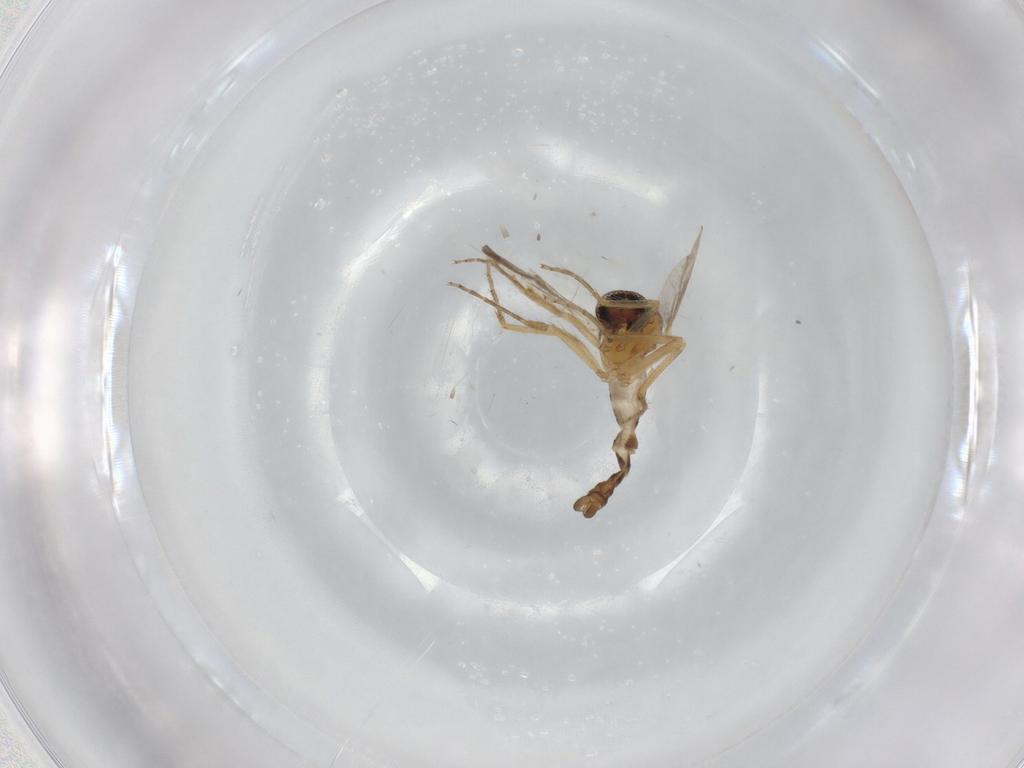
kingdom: Animalia
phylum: Arthropoda
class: Insecta
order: Diptera
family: Ceratopogonidae
